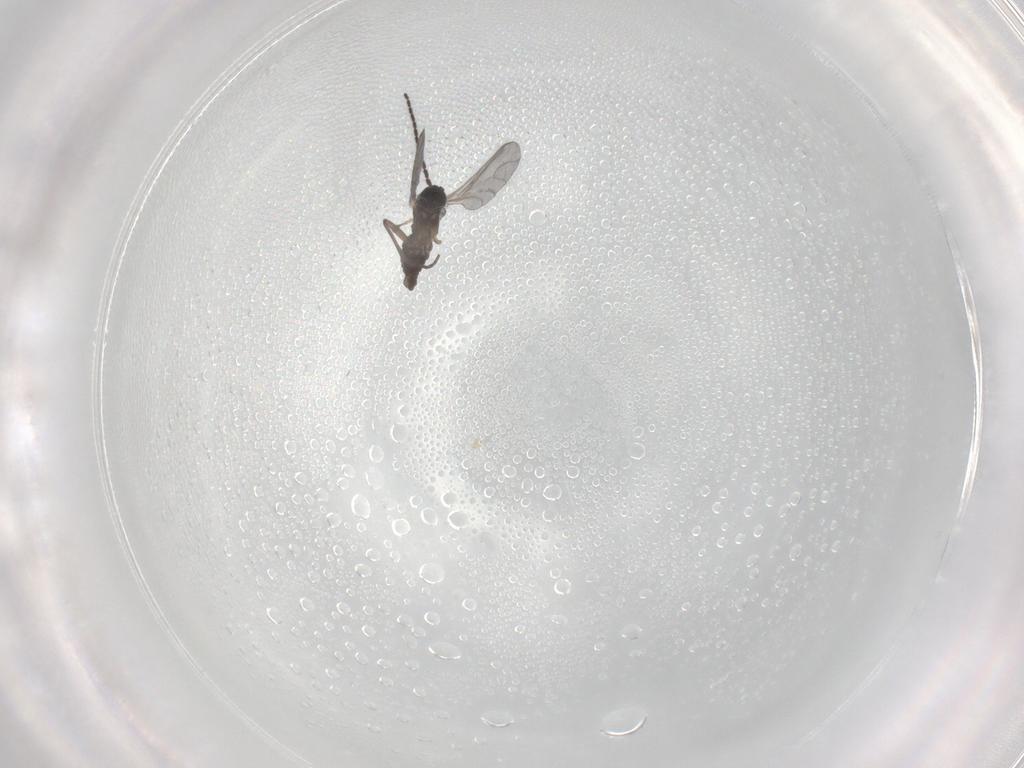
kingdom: Animalia
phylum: Arthropoda
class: Insecta
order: Diptera
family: Sciaridae
